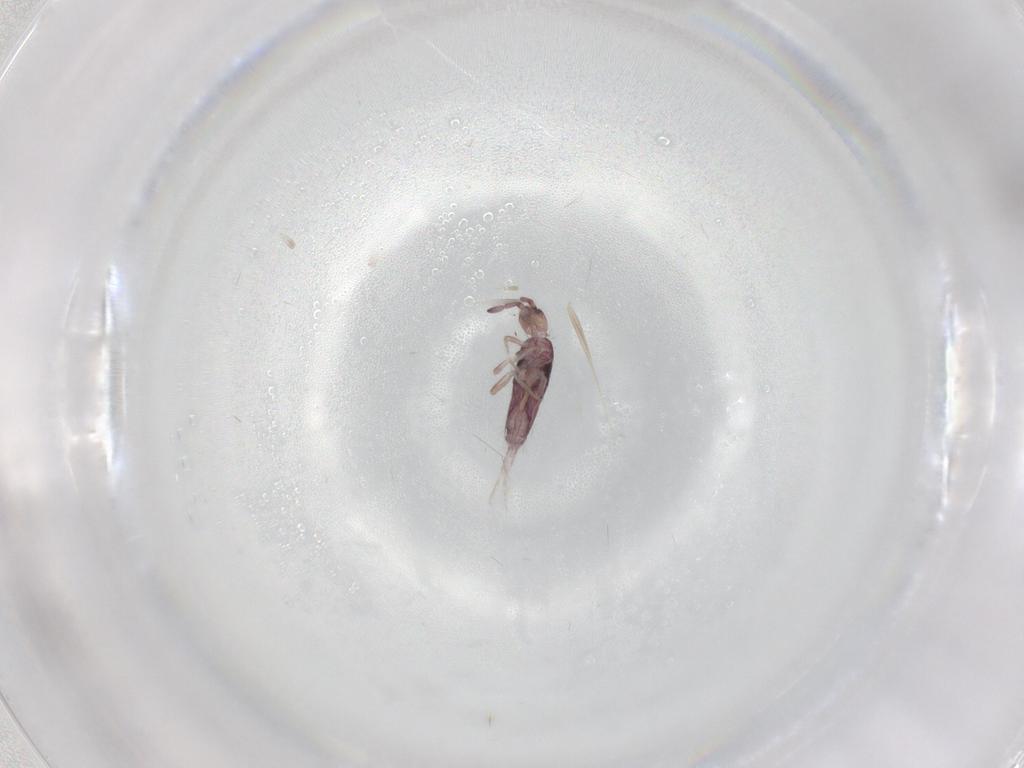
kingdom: Animalia
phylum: Arthropoda
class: Collembola
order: Entomobryomorpha
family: Entomobryidae
